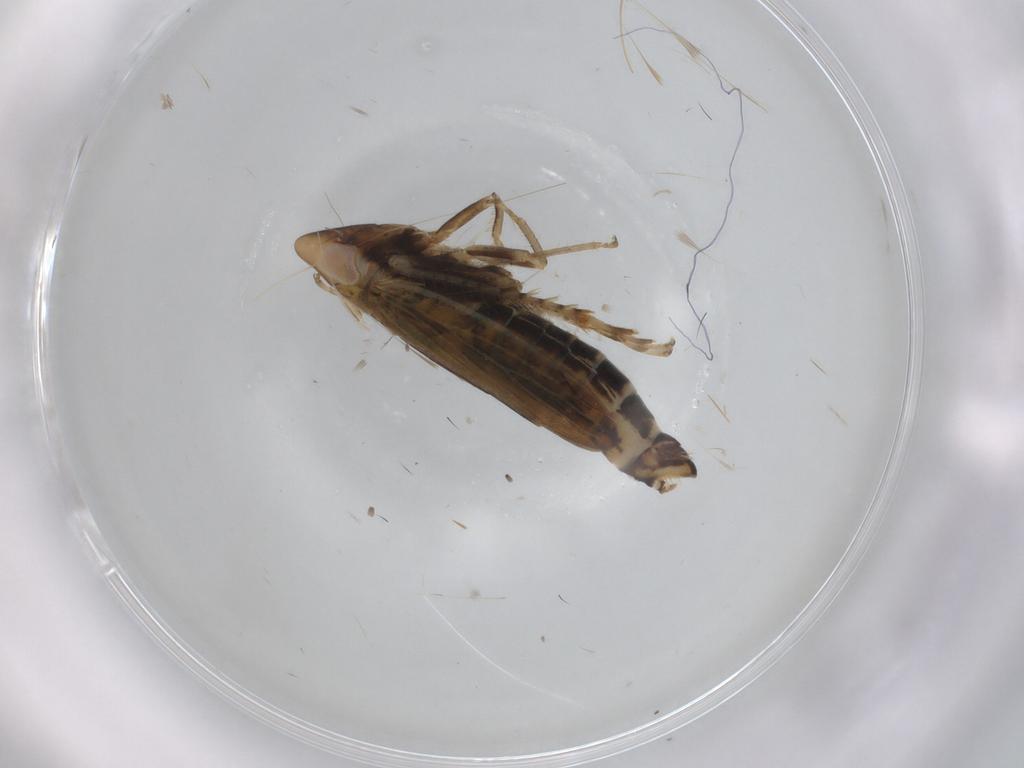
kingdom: Animalia
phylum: Arthropoda
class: Insecta
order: Hemiptera
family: Cicadellidae
